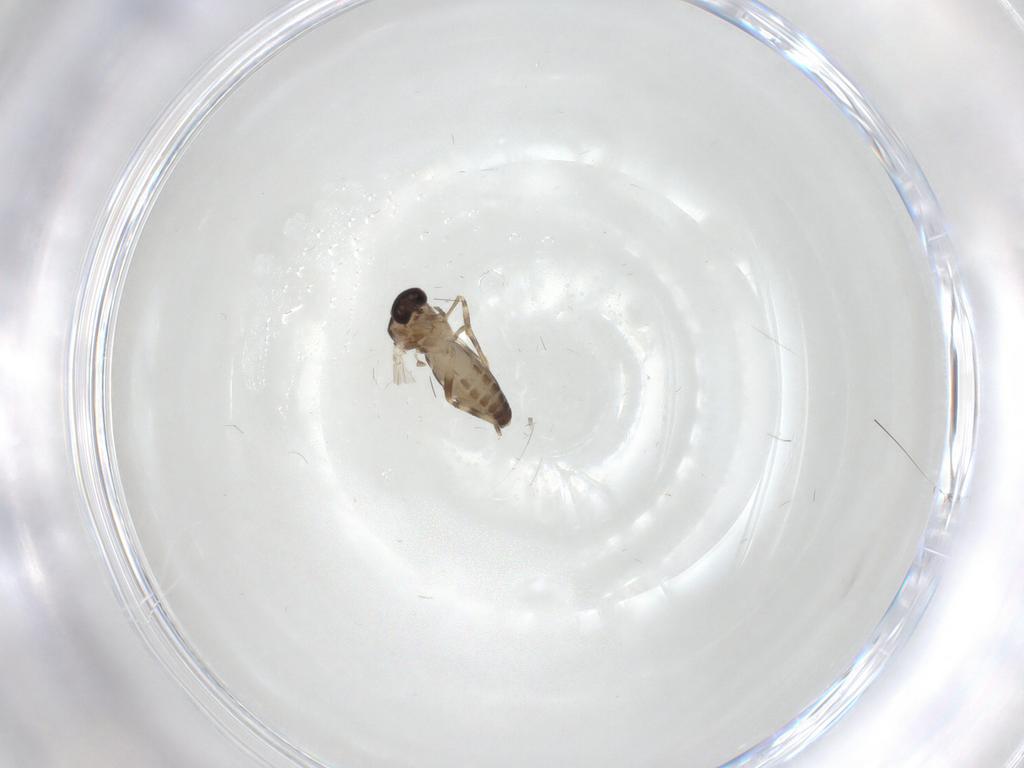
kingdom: Animalia
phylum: Arthropoda
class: Insecta
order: Diptera
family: Ceratopogonidae
